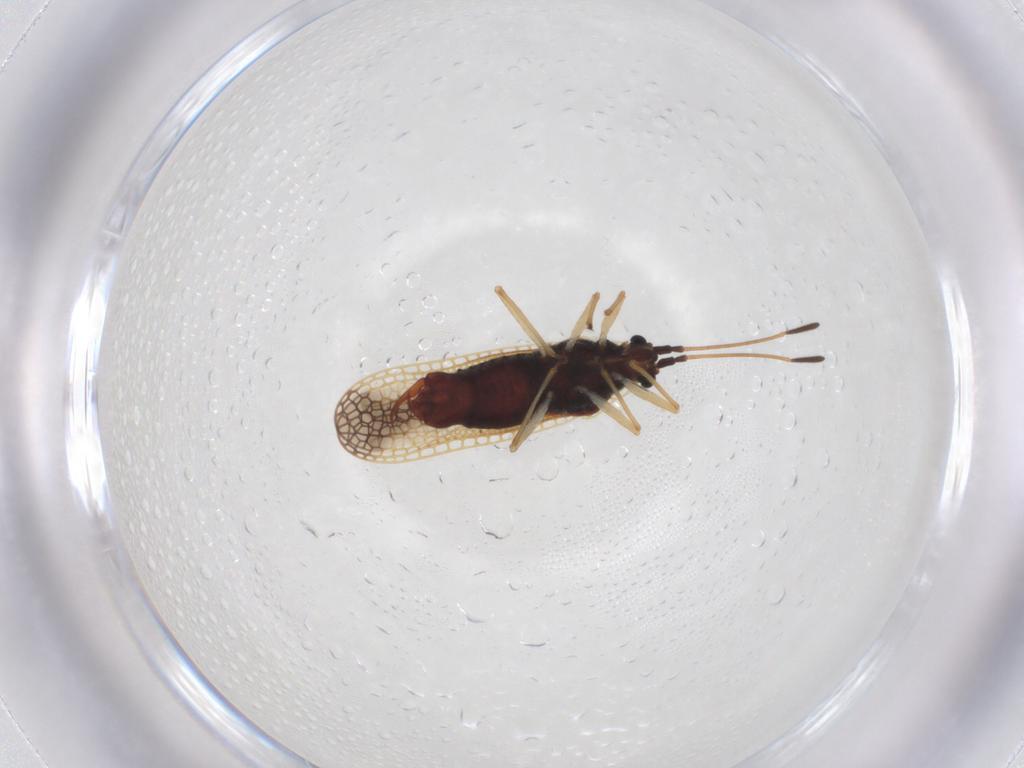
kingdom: Animalia
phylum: Arthropoda
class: Insecta
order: Hemiptera
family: Tingidae
